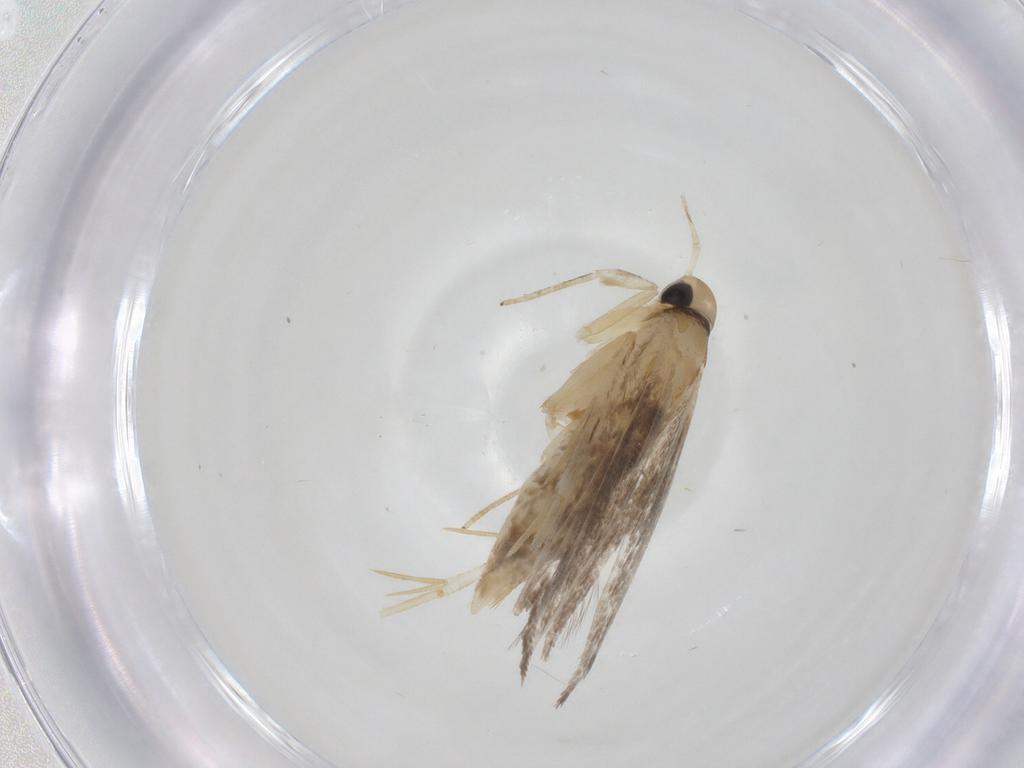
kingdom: Animalia
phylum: Arthropoda
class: Insecta
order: Lepidoptera
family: Cosmopterigidae
